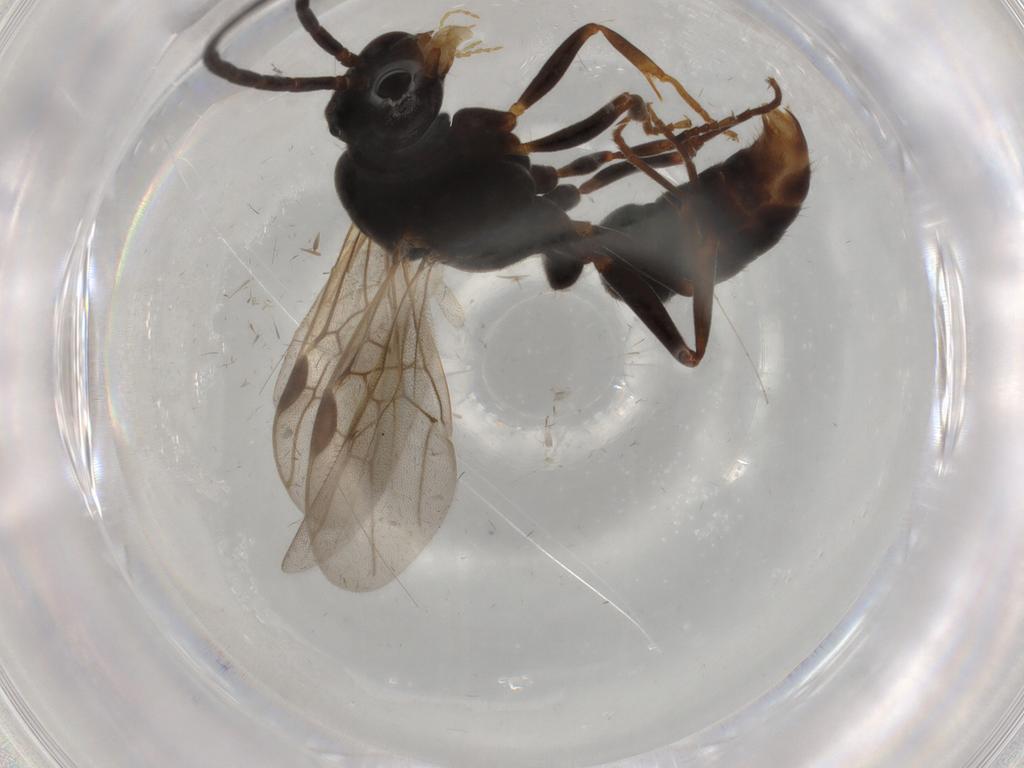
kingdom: Animalia
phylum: Arthropoda
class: Insecta
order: Hymenoptera
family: Formicidae
